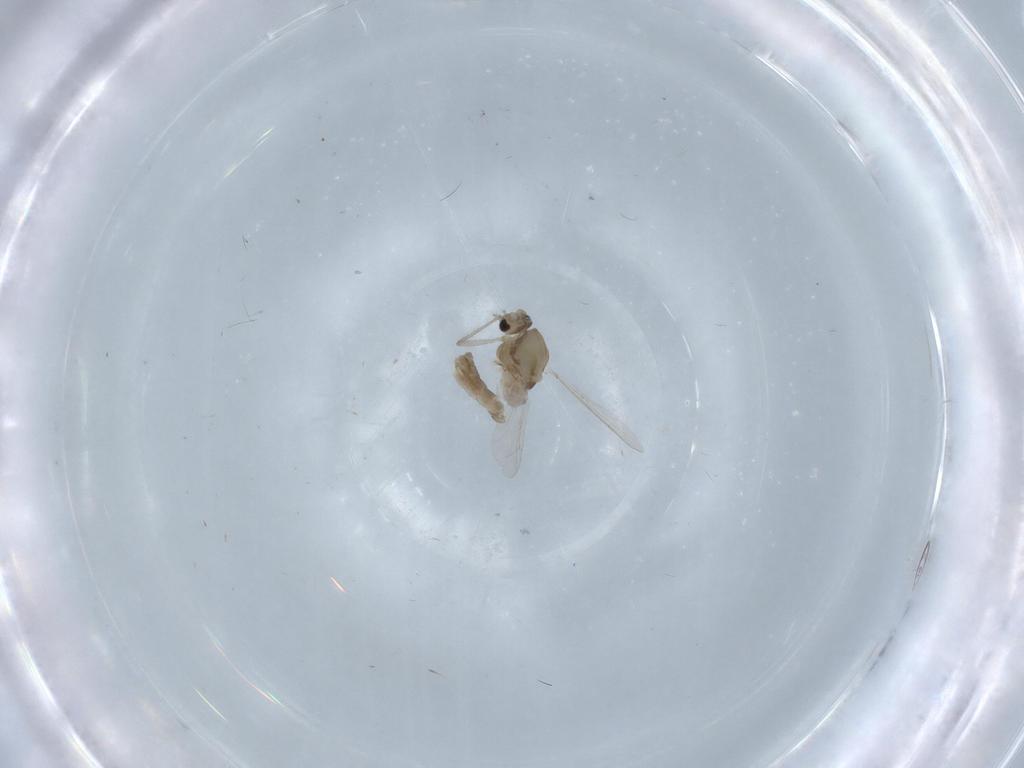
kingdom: Animalia
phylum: Arthropoda
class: Insecta
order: Diptera
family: Chironomidae
